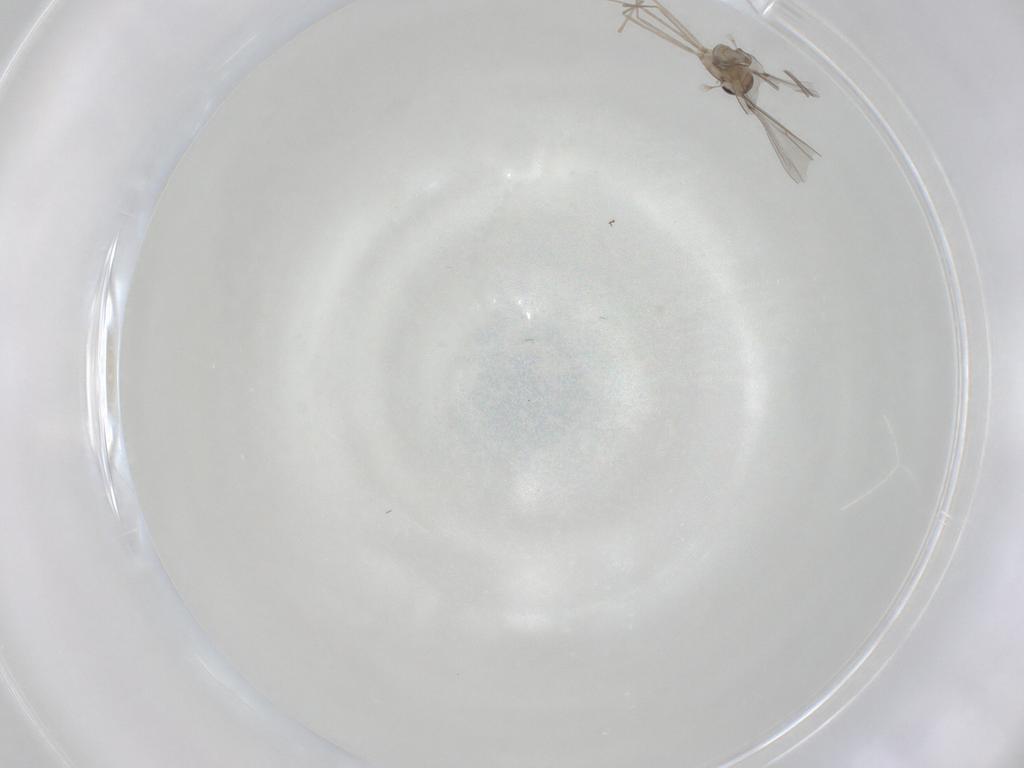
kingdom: Animalia
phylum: Arthropoda
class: Insecta
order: Diptera
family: Cecidomyiidae
